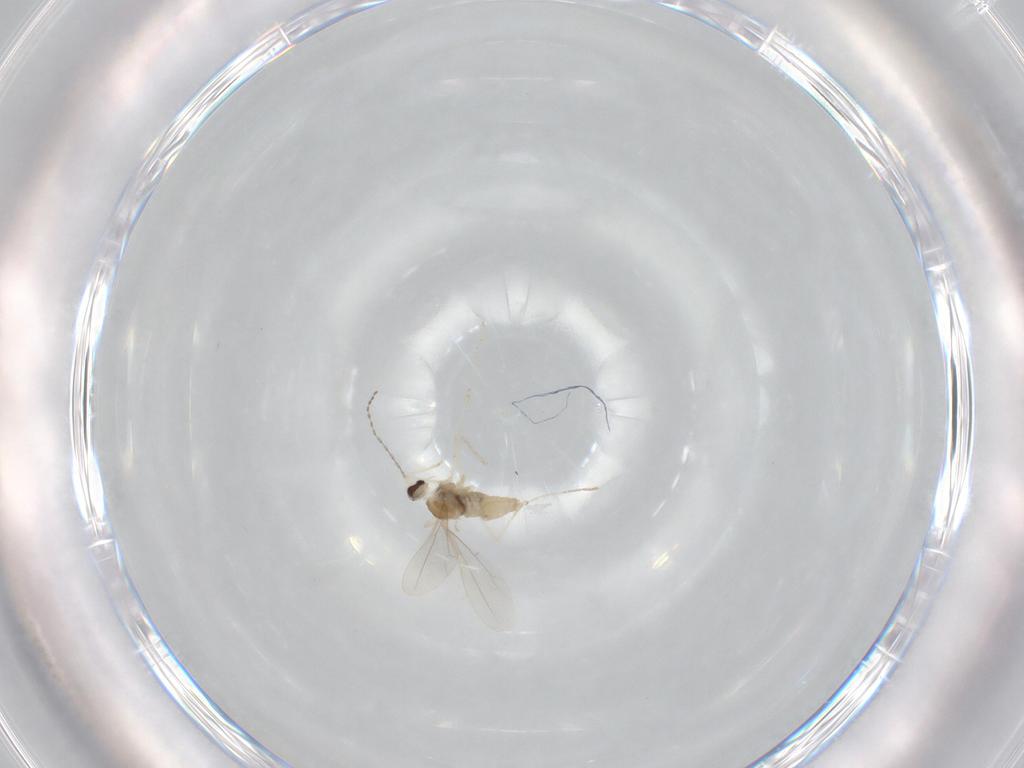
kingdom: Animalia
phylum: Arthropoda
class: Insecta
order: Diptera
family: Cecidomyiidae
